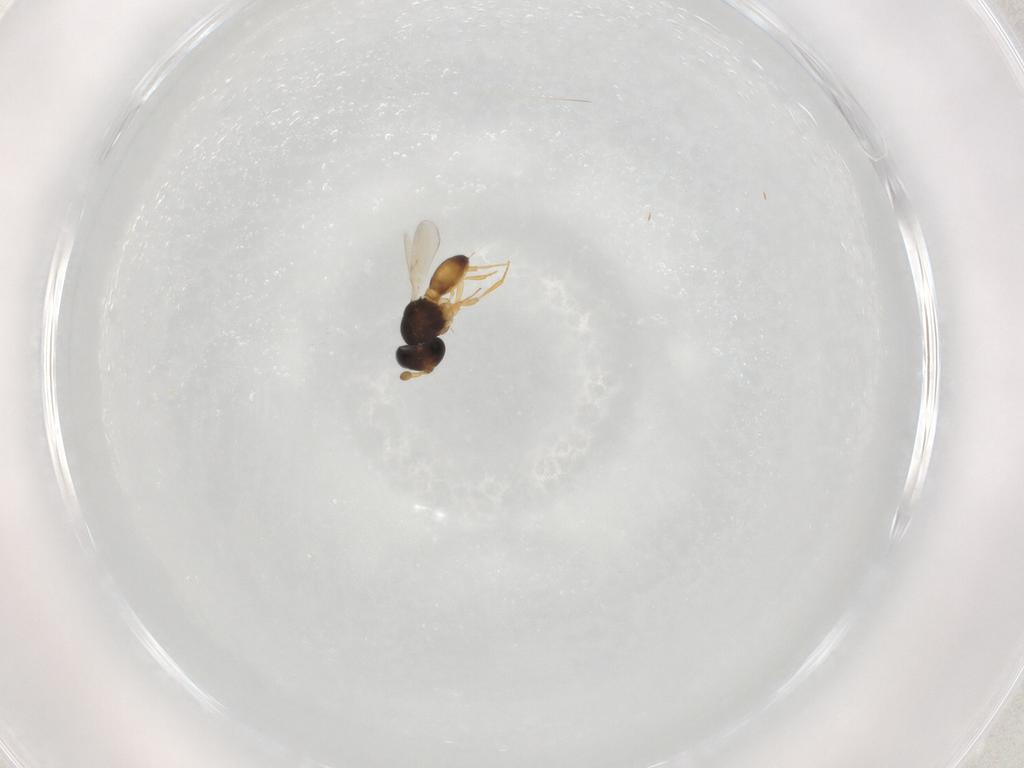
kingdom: Animalia
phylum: Arthropoda
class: Insecta
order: Hymenoptera
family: Scelionidae
